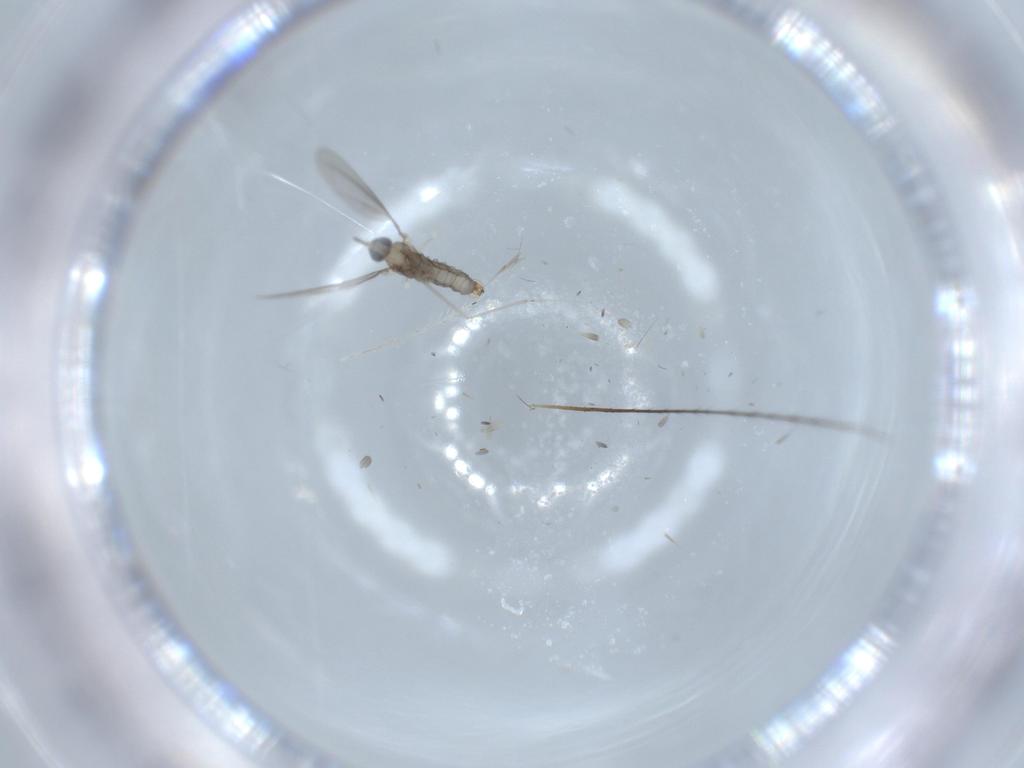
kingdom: Animalia
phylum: Arthropoda
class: Insecta
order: Diptera
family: Cecidomyiidae
